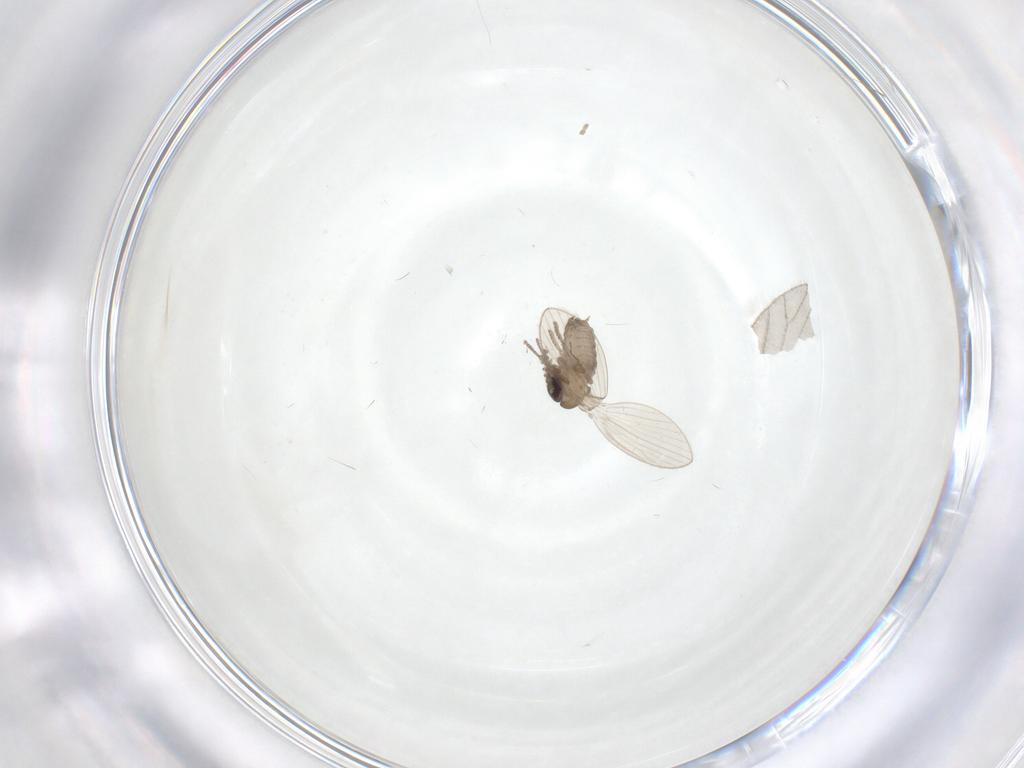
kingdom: Animalia
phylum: Arthropoda
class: Insecta
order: Diptera
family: Limoniidae
